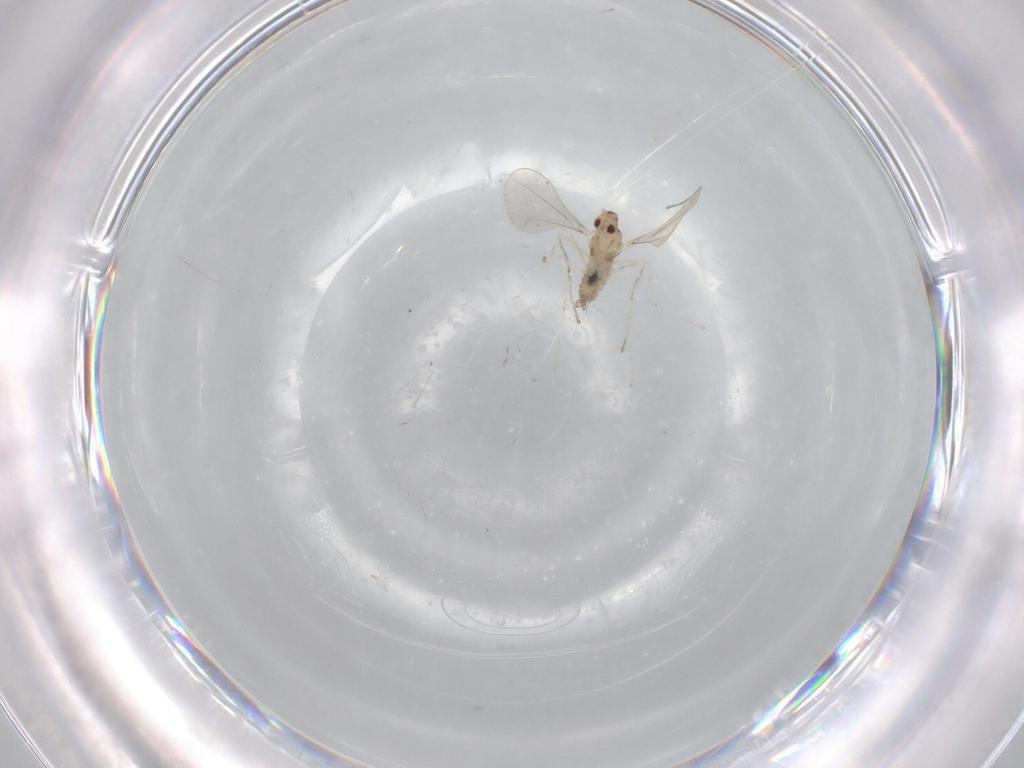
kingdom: Animalia
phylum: Arthropoda
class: Insecta
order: Diptera
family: Cecidomyiidae
